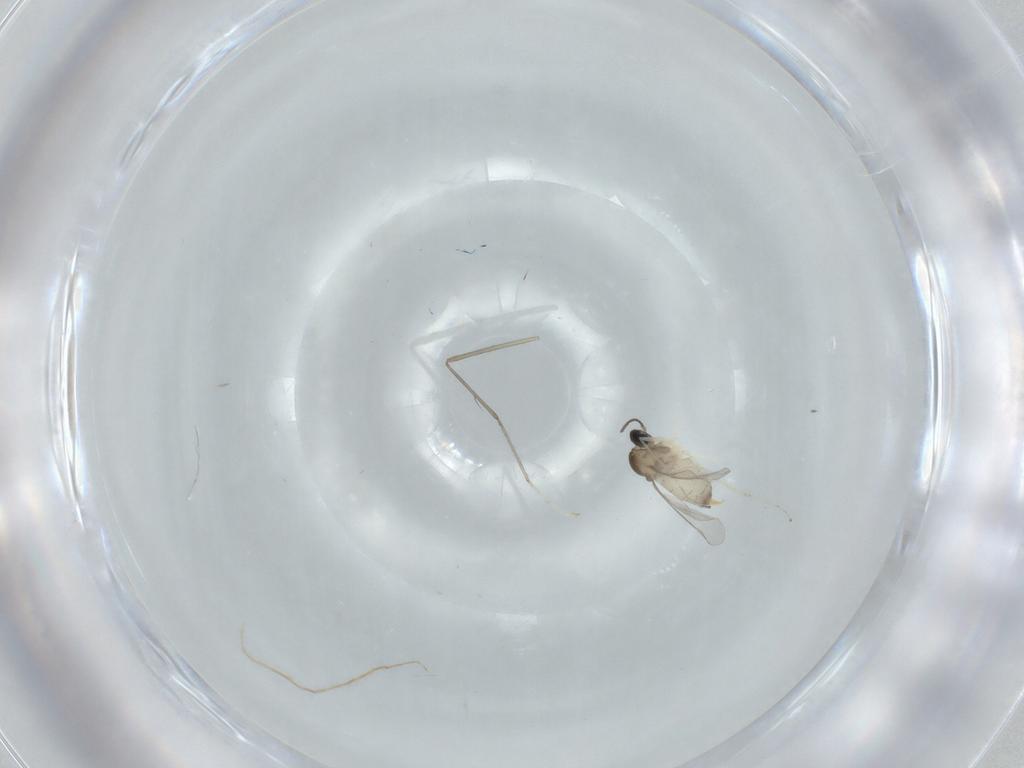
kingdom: Animalia
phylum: Arthropoda
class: Insecta
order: Diptera
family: Cecidomyiidae
